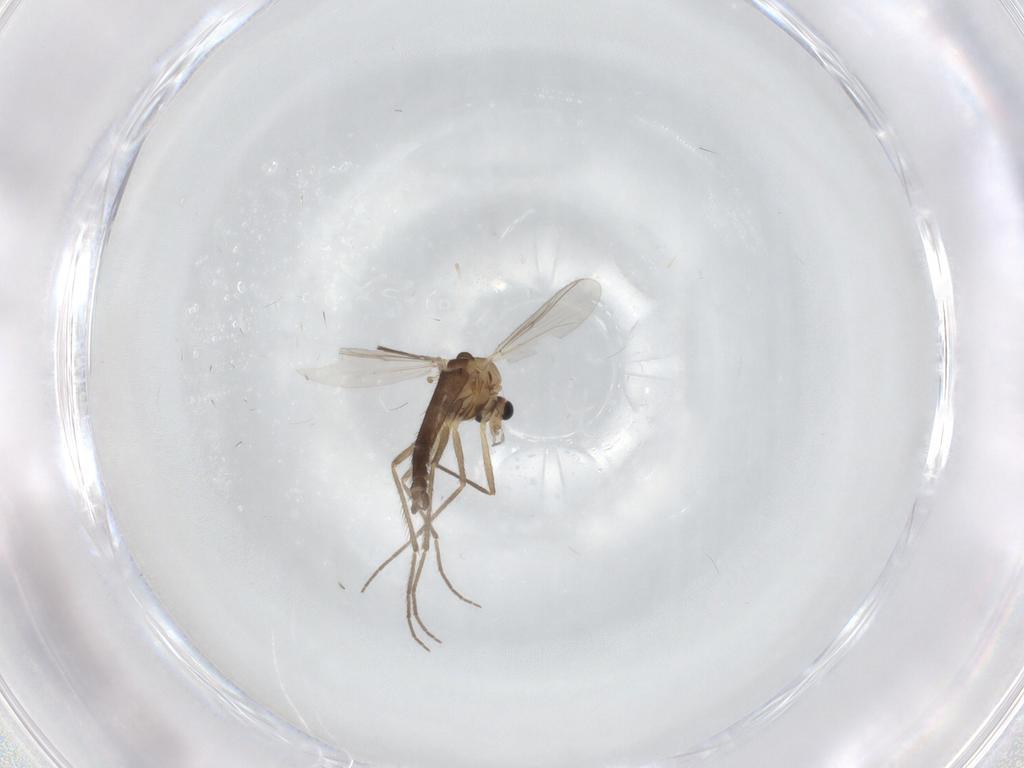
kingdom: Animalia
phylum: Arthropoda
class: Insecta
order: Diptera
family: Chironomidae
